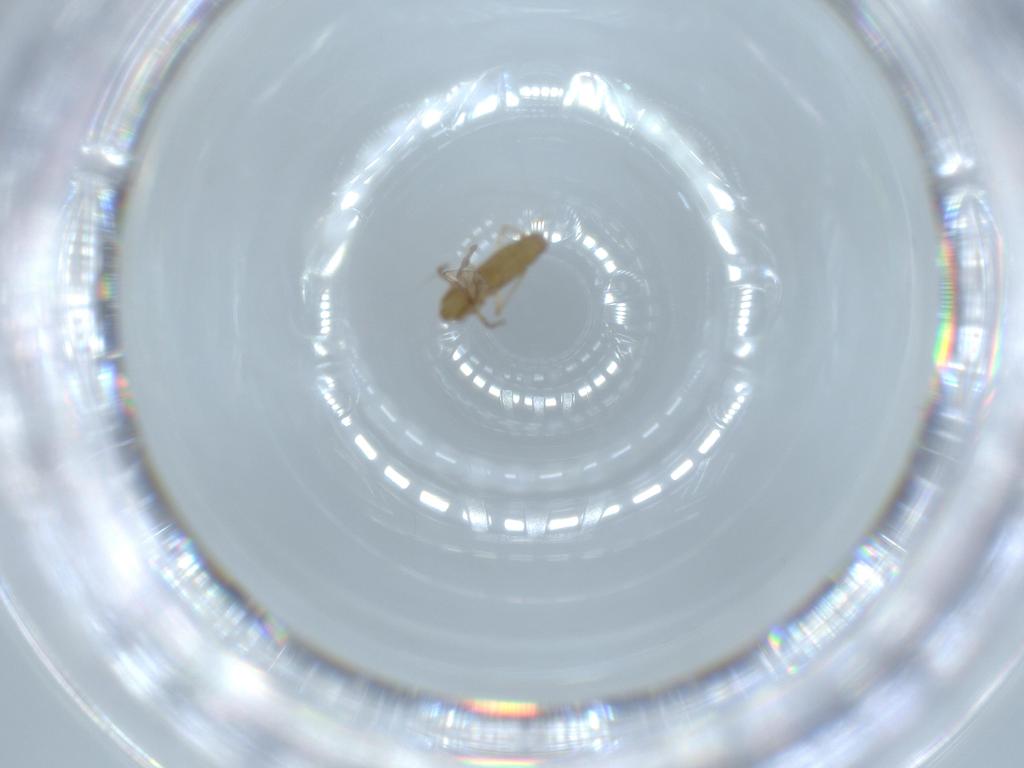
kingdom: Animalia
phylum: Arthropoda
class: Insecta
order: Diptera
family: Chironomidae
